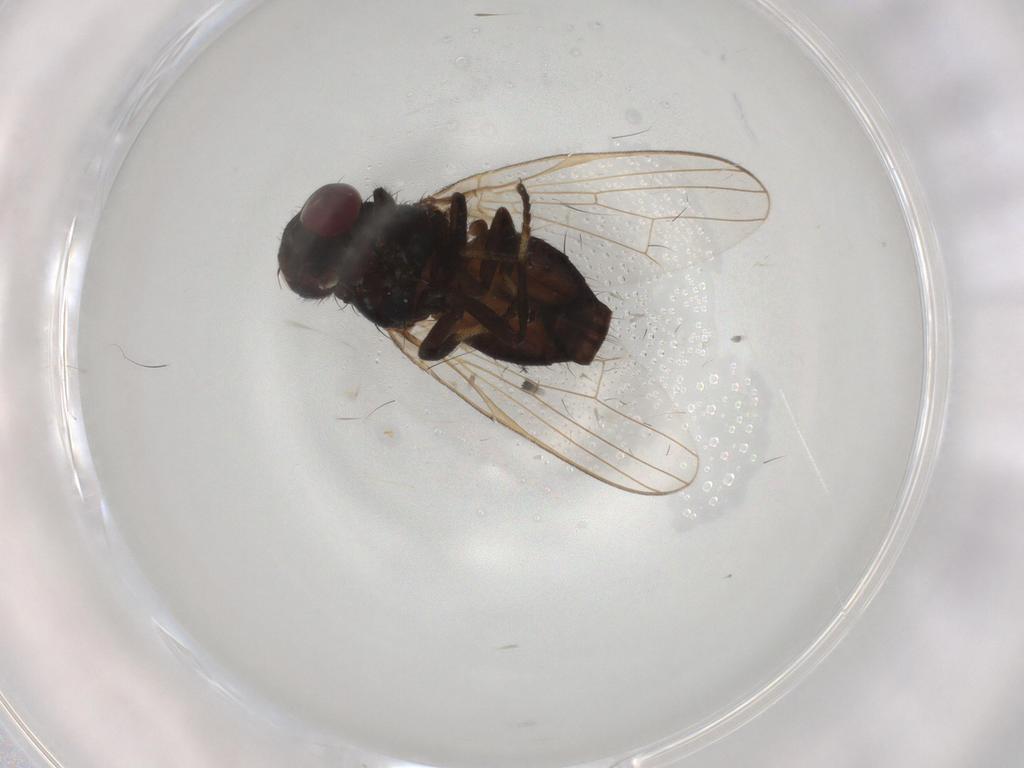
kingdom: Animalia
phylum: Arthropoda
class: Insecta
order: Diptera
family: Lonchaeidae
